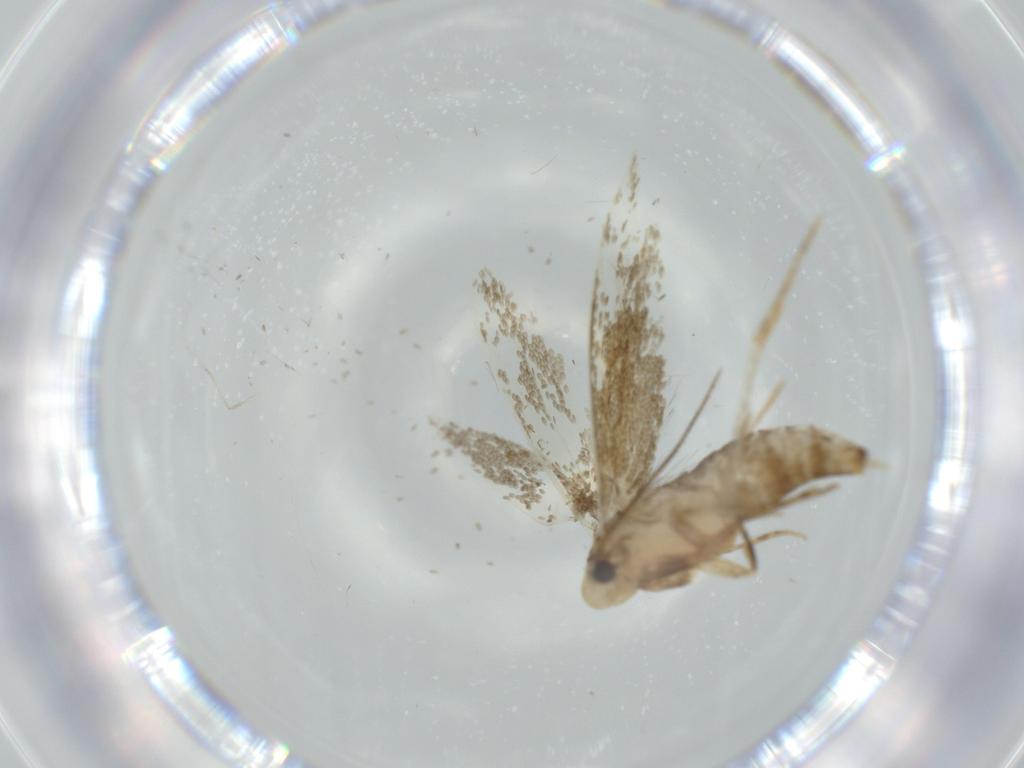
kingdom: Animalia
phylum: Arthropoda
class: Insecta
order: Lepidoptera
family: Tineidae
